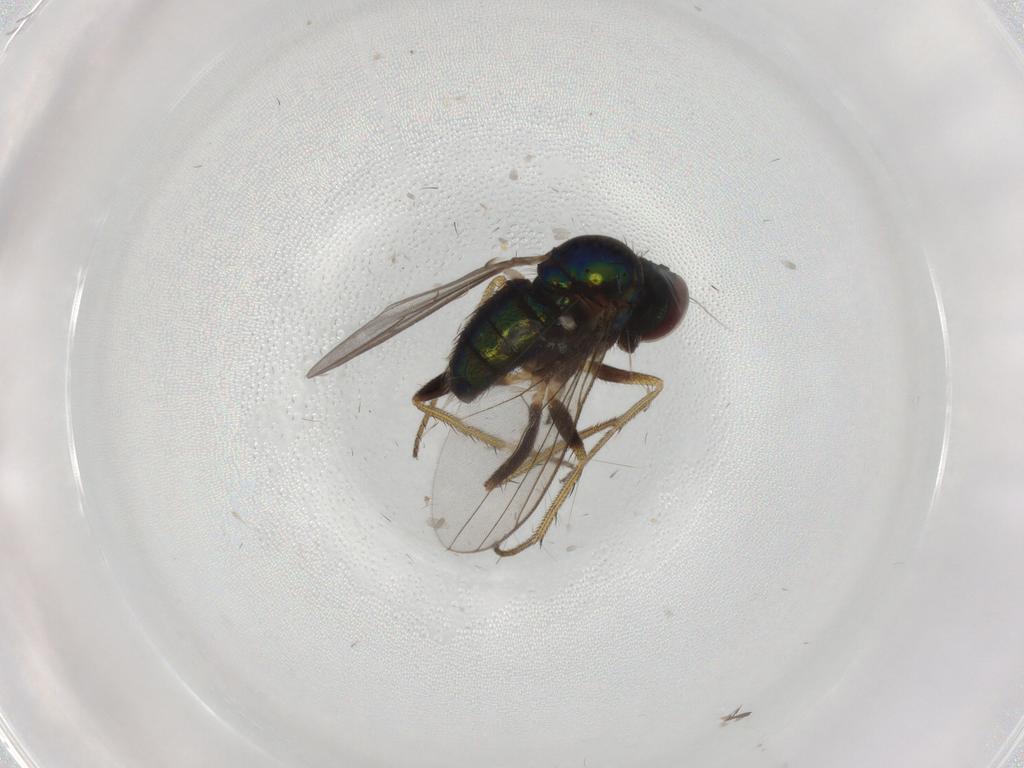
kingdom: Animalia
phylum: Arthropoda
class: Insecta
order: Diptera
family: Dolichopodidae
